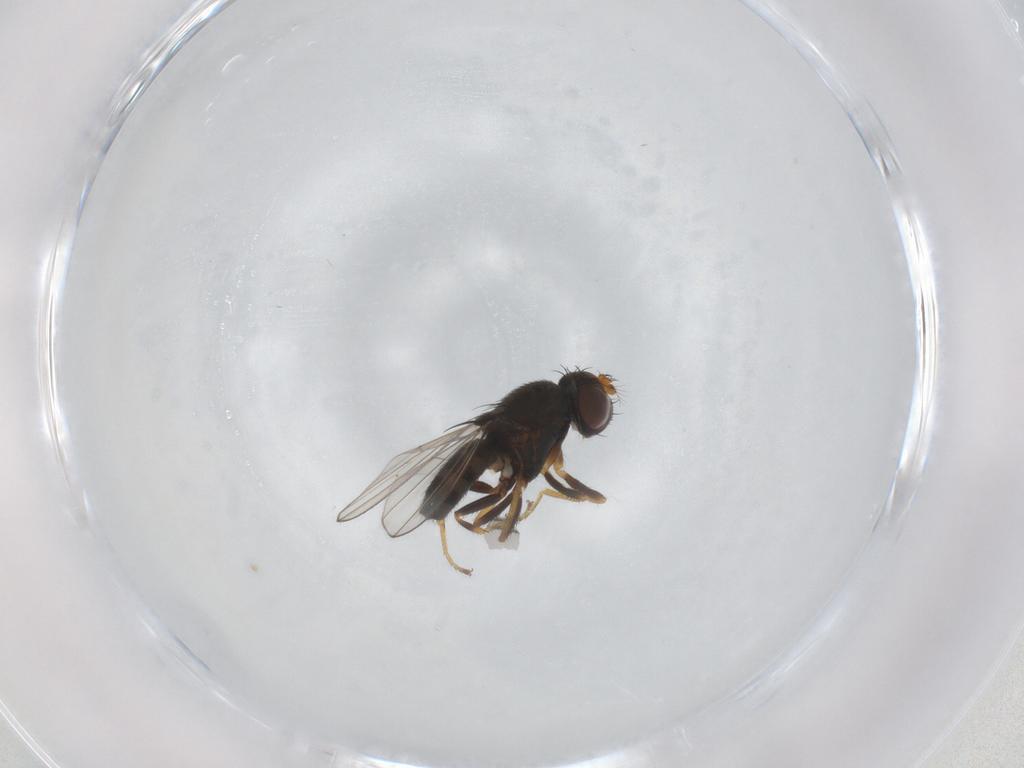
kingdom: Animalia
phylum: Arthropoda
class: Insecta
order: Diptera
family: Ephydridae
